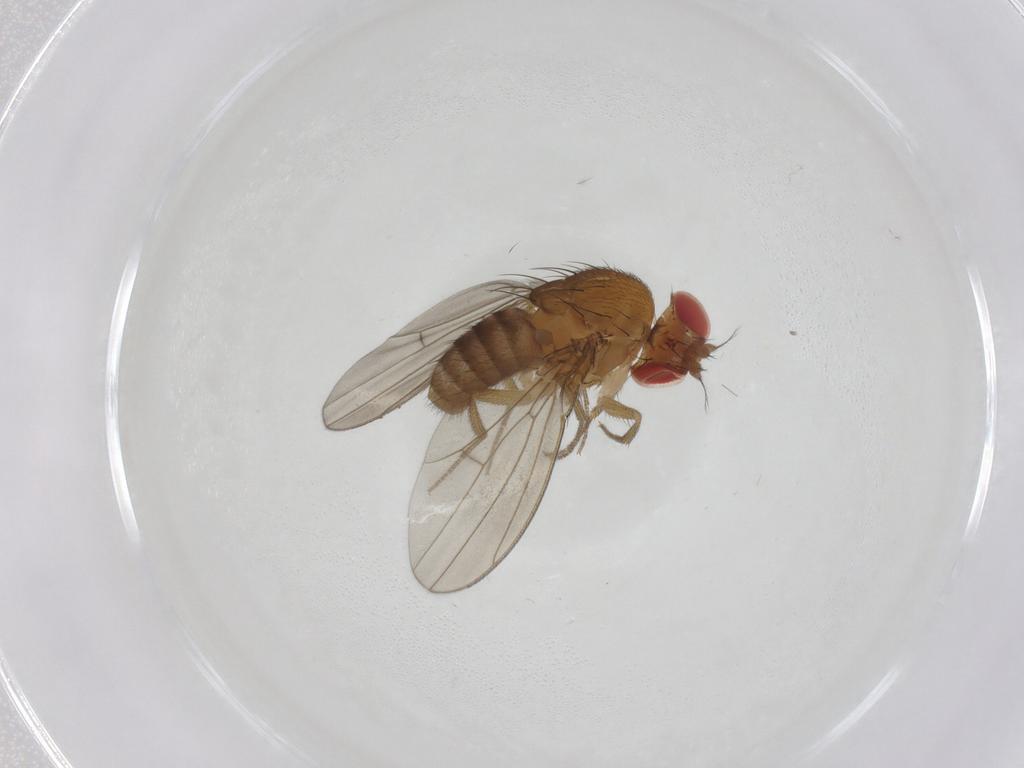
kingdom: Animalia
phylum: Arthropoda
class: Insecta
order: Diptera
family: Drosophilidae
